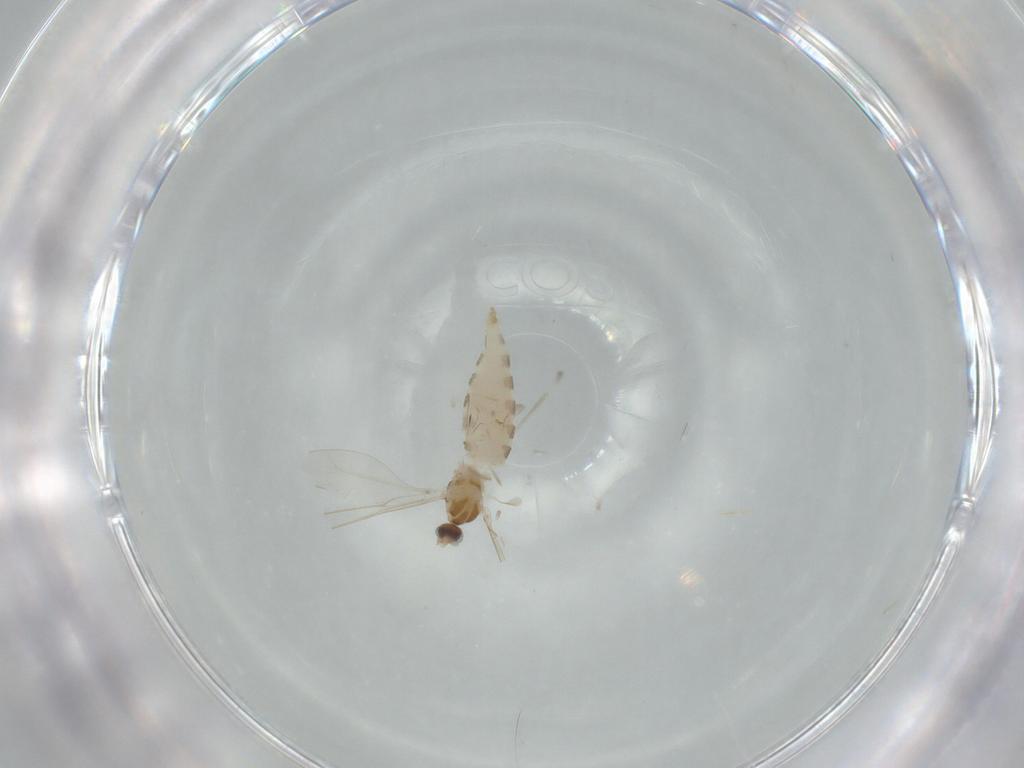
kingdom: Animalia
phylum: Arthropoda
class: Insecta
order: Diptera
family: Cecidomyiidae
